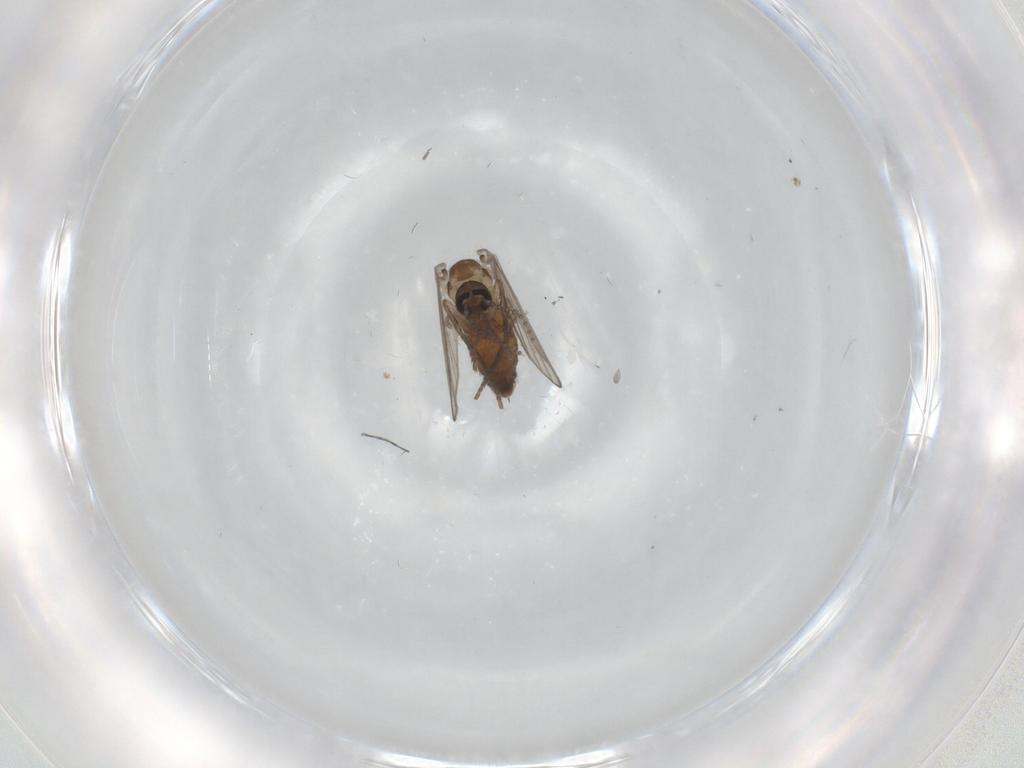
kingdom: Animalia
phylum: Arthropoda
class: Insecta
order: Diptera
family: Psychodidae
